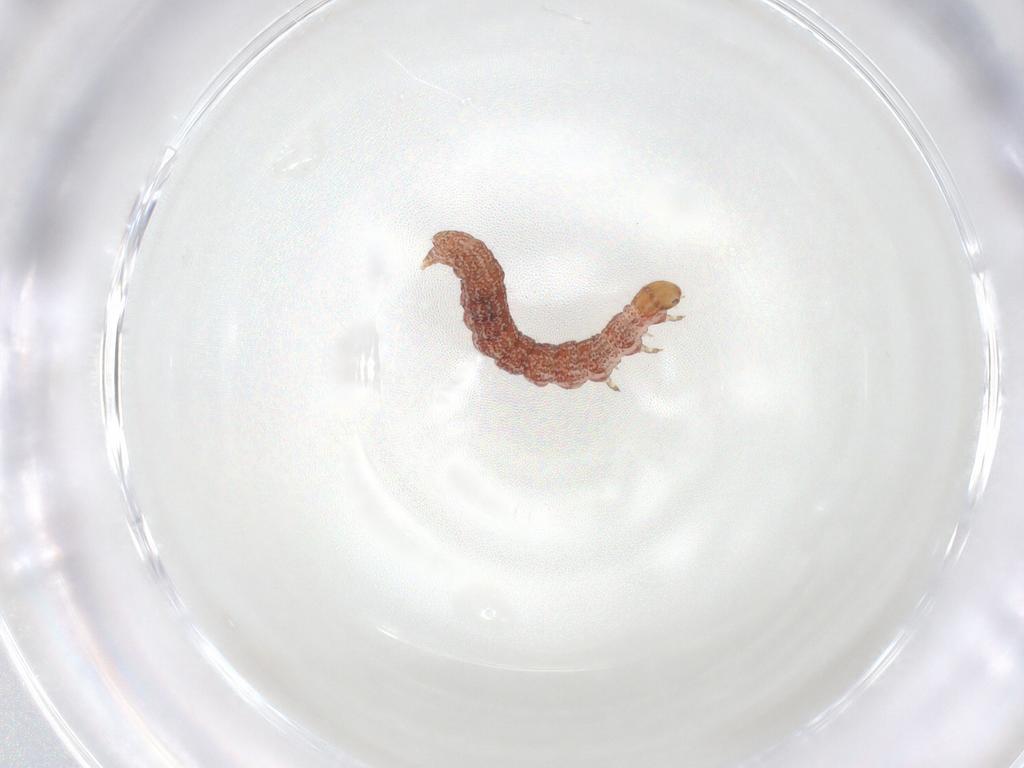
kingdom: Animalia
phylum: Arthropoda
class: Insecta
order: Lepidoptera
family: Gelechiidae
